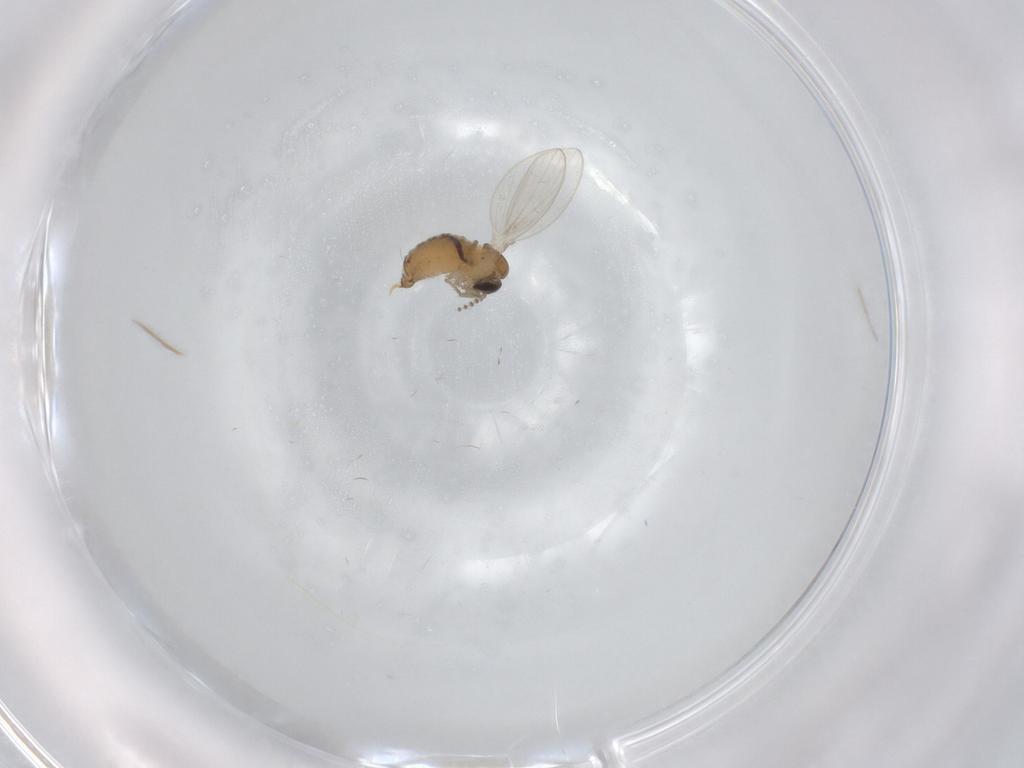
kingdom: Animalia
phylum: Arthropoda
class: Insecta
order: Diptera
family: Psychodidae
